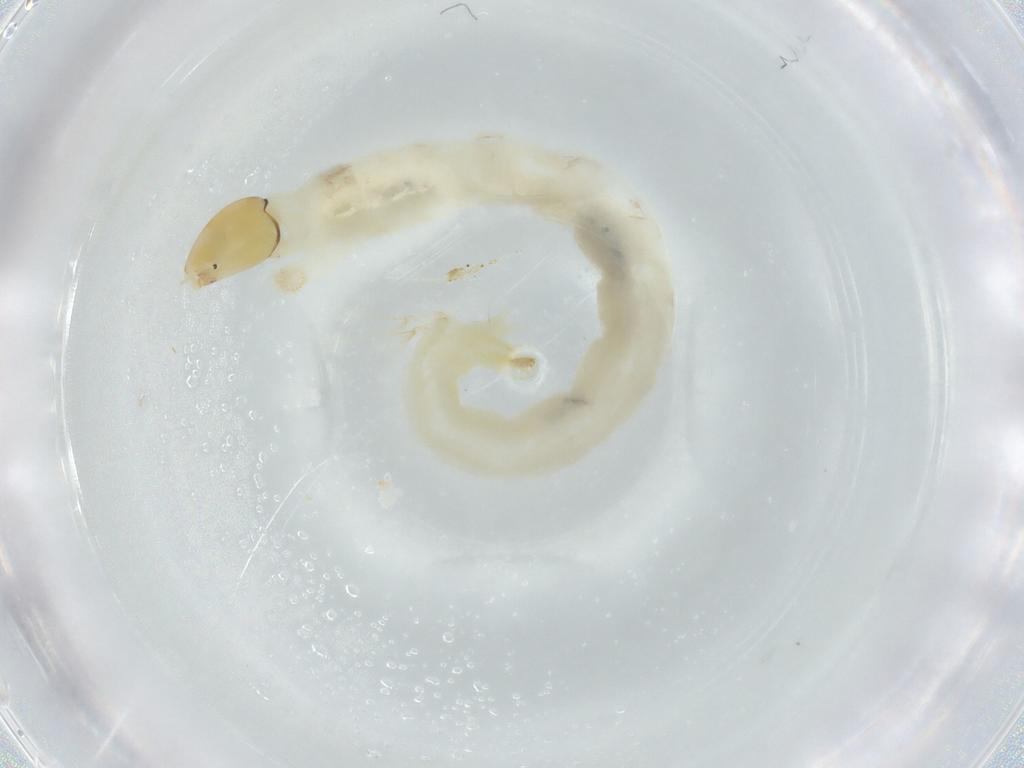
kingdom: Animalia
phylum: Arthropoda
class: Insecta
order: Diptera
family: Chironomidae
